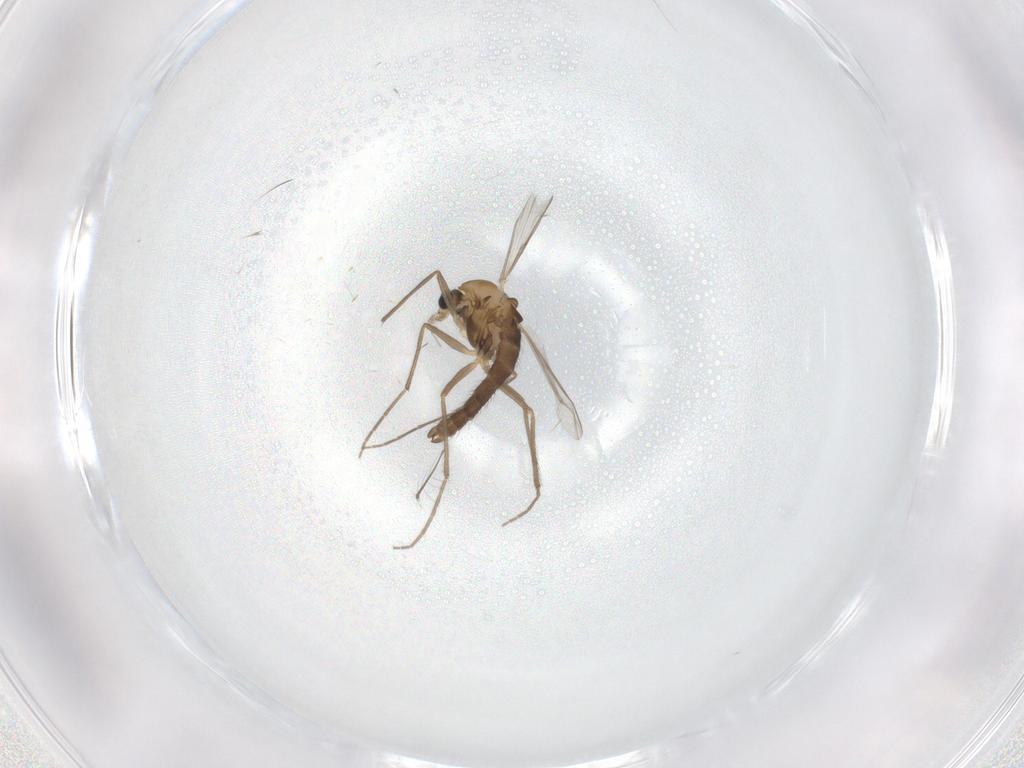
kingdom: Animalia
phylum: Arthropoda
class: Insecta
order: Diptera
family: Chironomidae
